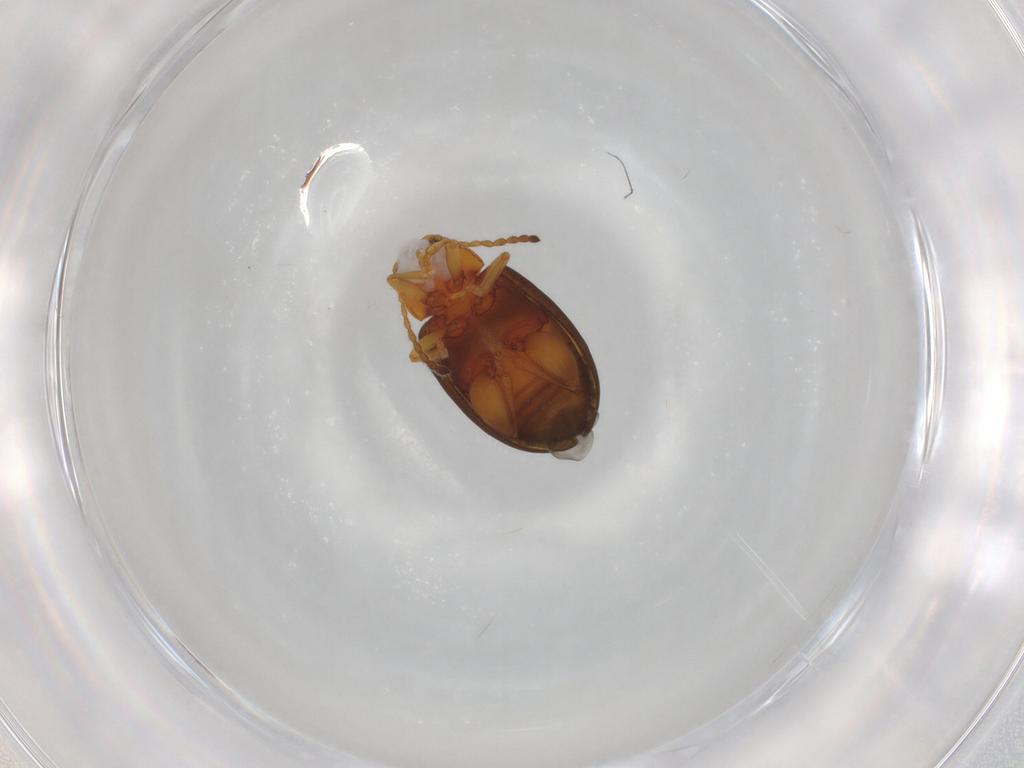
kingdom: Animalia
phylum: Arthropoda
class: Insecta
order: Coleoptera
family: Chrysomelidae
